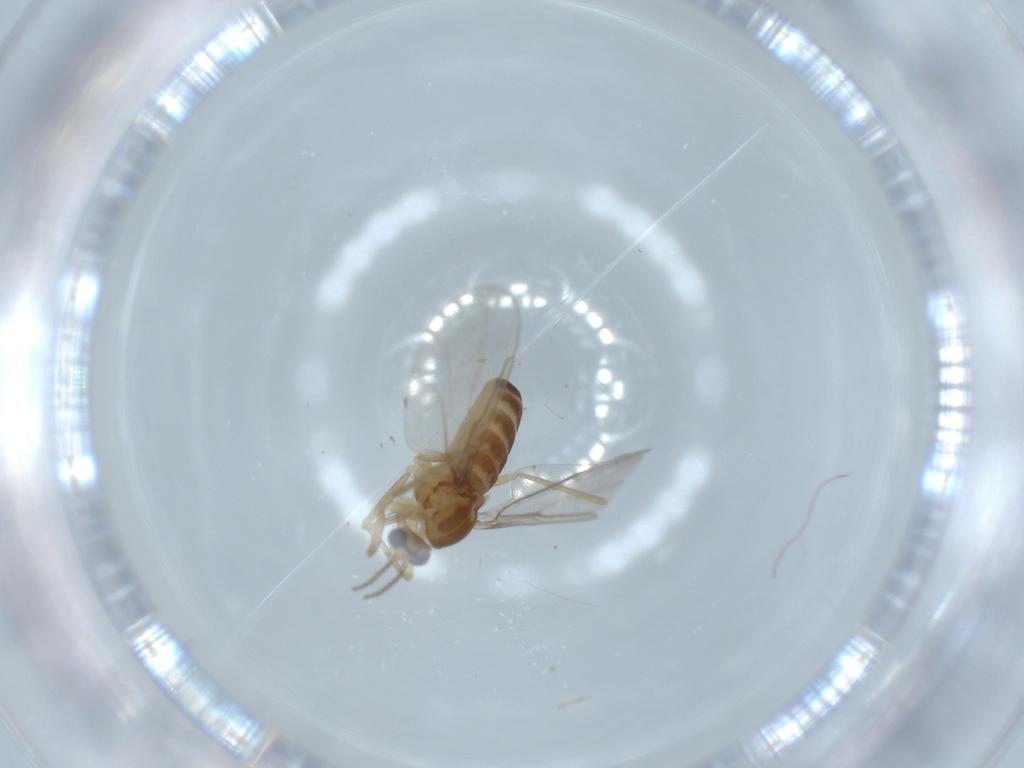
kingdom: Animalia
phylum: Arthropoda
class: Insecta
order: Diptera
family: Cecidomyiidae
